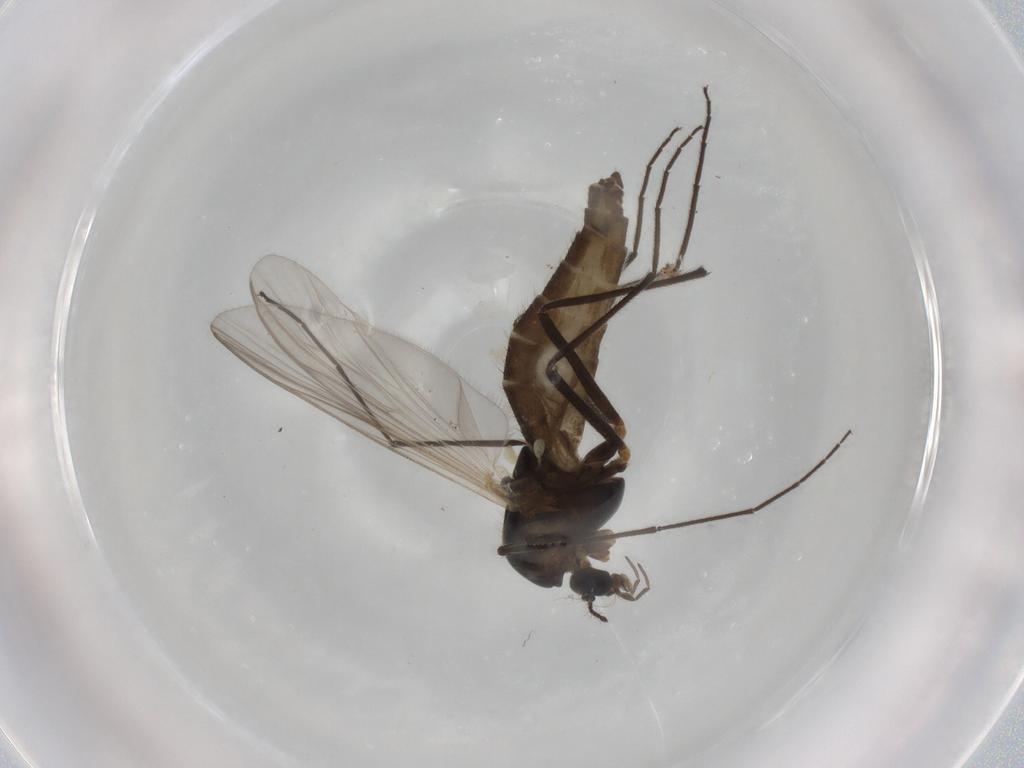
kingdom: Animalia
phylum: Arthropoda
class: Insecta
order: Diptera
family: Chironomidae
